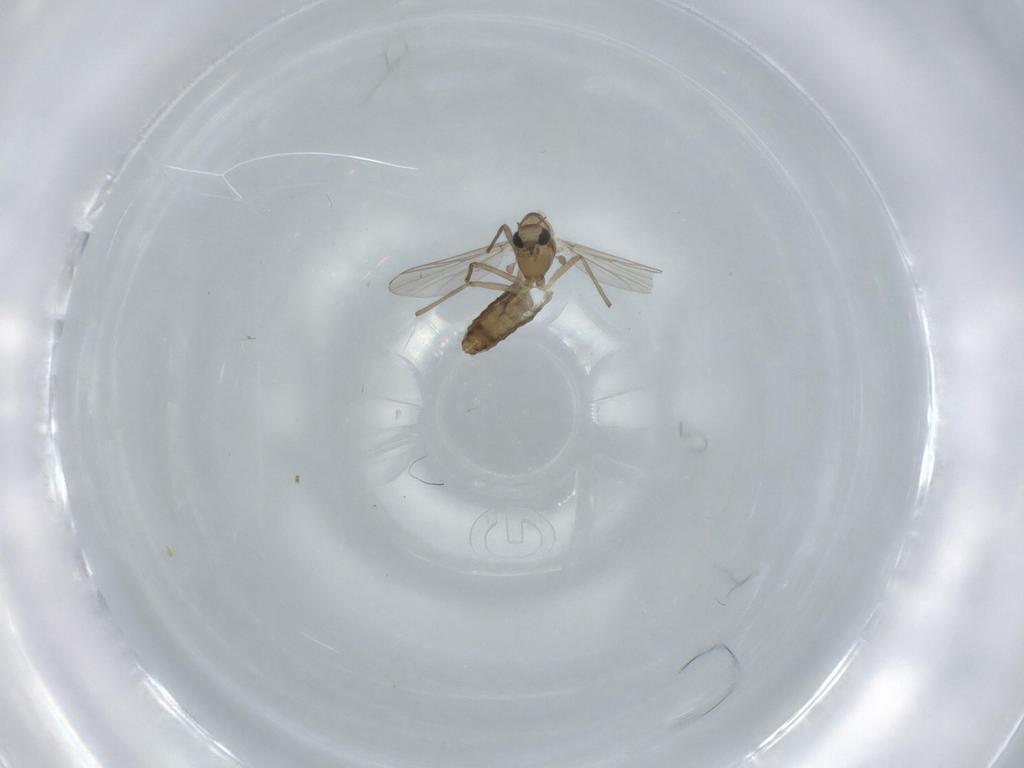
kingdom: Animalia
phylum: Arthropoda
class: Insecta
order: Diptera
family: Chironomidae
